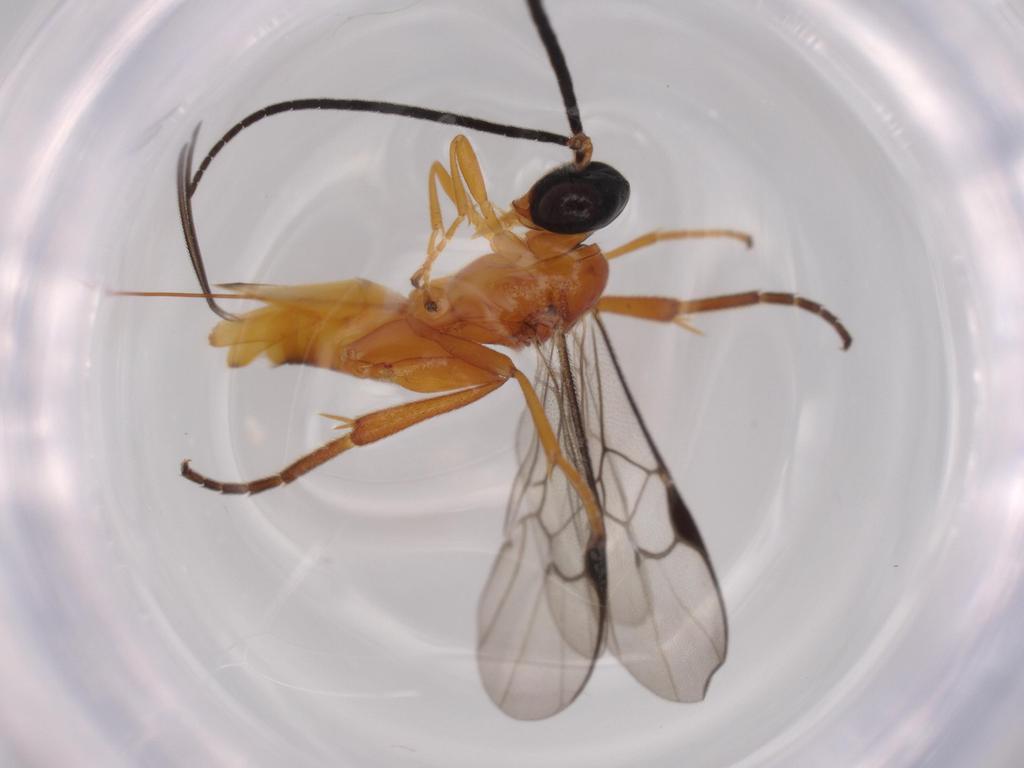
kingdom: Animalia
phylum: Arthropoda
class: Insecta
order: Hymenoptera
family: Braconidae
